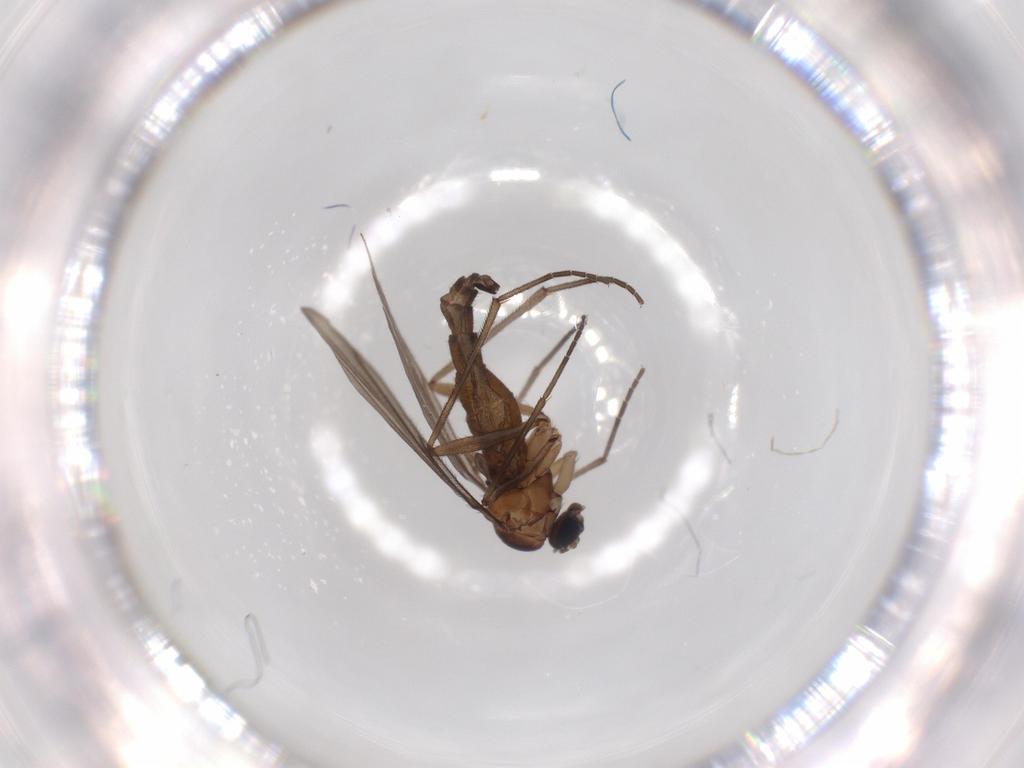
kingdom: Animalia
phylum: Arthropoda
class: Insecta
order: Diptera
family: Sciaridae
